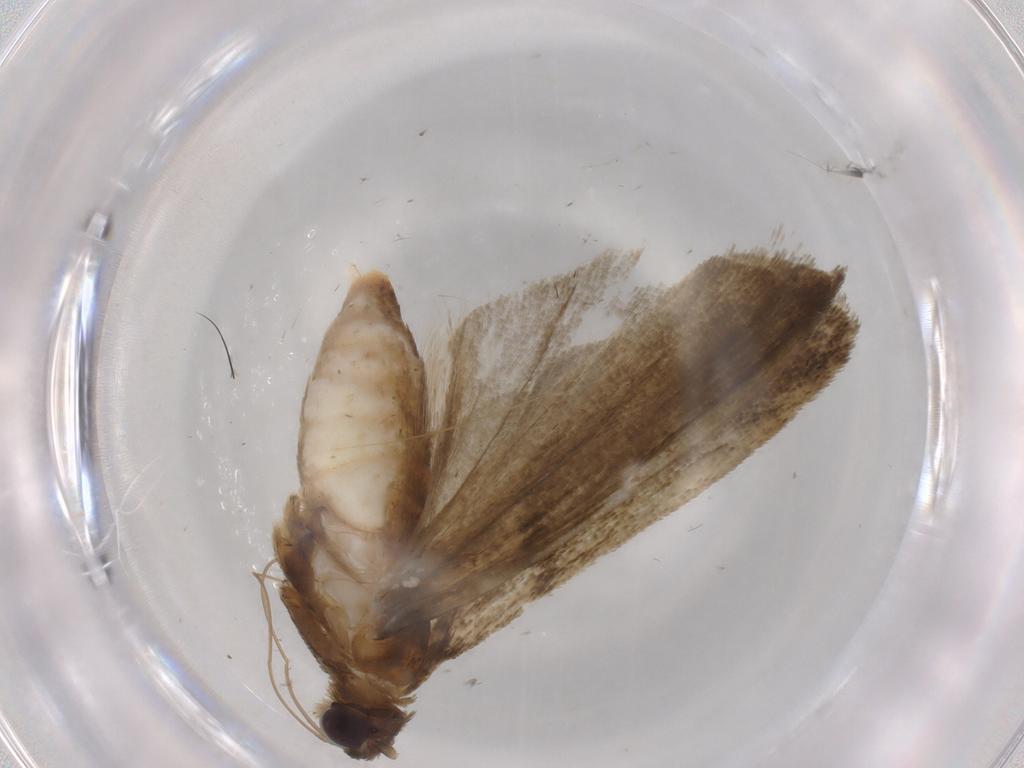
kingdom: Animalia
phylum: Arthropoda
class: Insecta
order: Lepidoptera
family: Noctuidae
